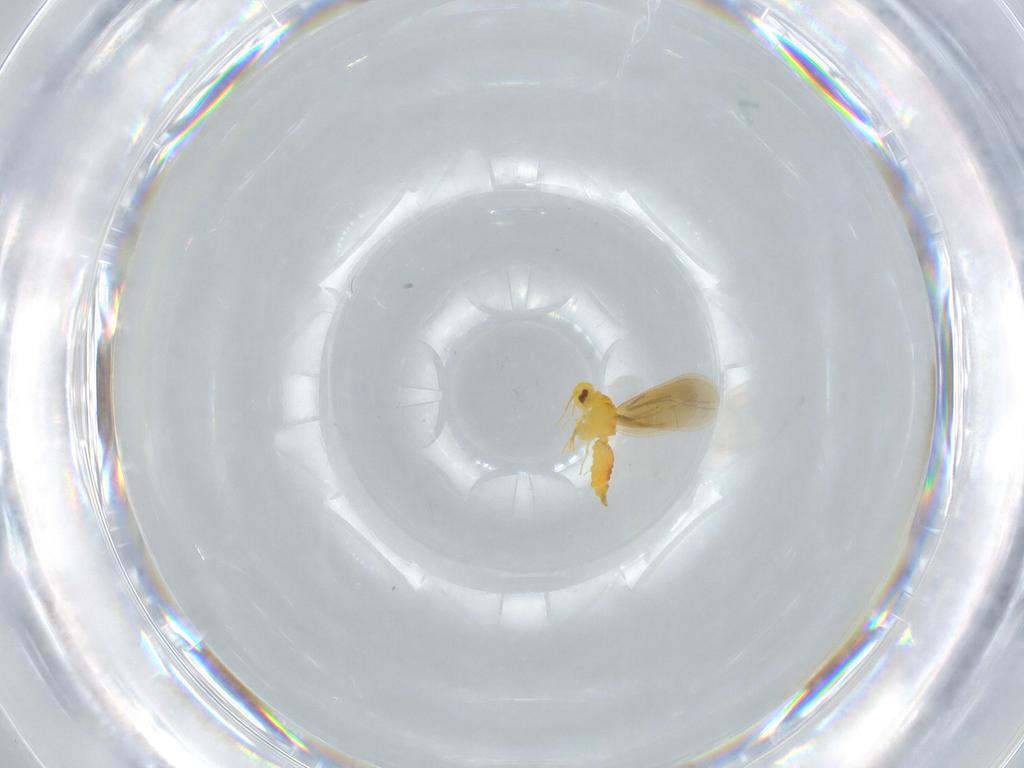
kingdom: Animalia
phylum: Arthropoda
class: Insecta
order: Hemiptera
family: Aleyrodidae
